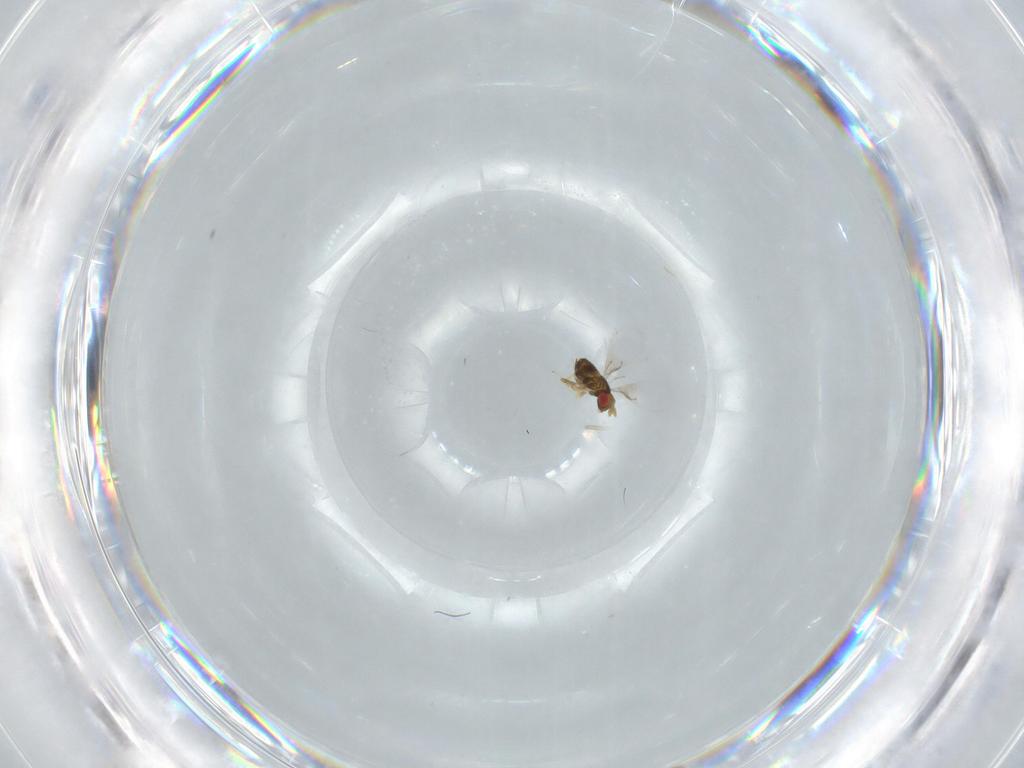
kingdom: Animalia
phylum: Arthropoda
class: Insecta
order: Hymenoptera
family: Trichogrammatidae
